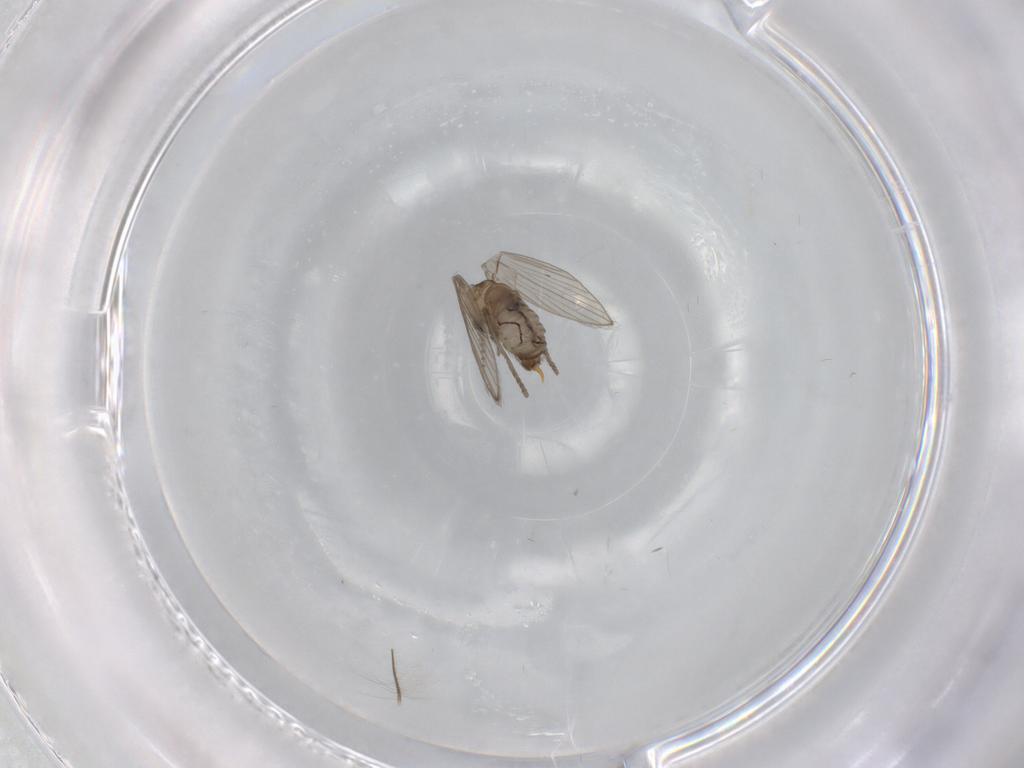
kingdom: Animalia
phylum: Arthropoda
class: Insecta
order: Diptera
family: Psychodidae
